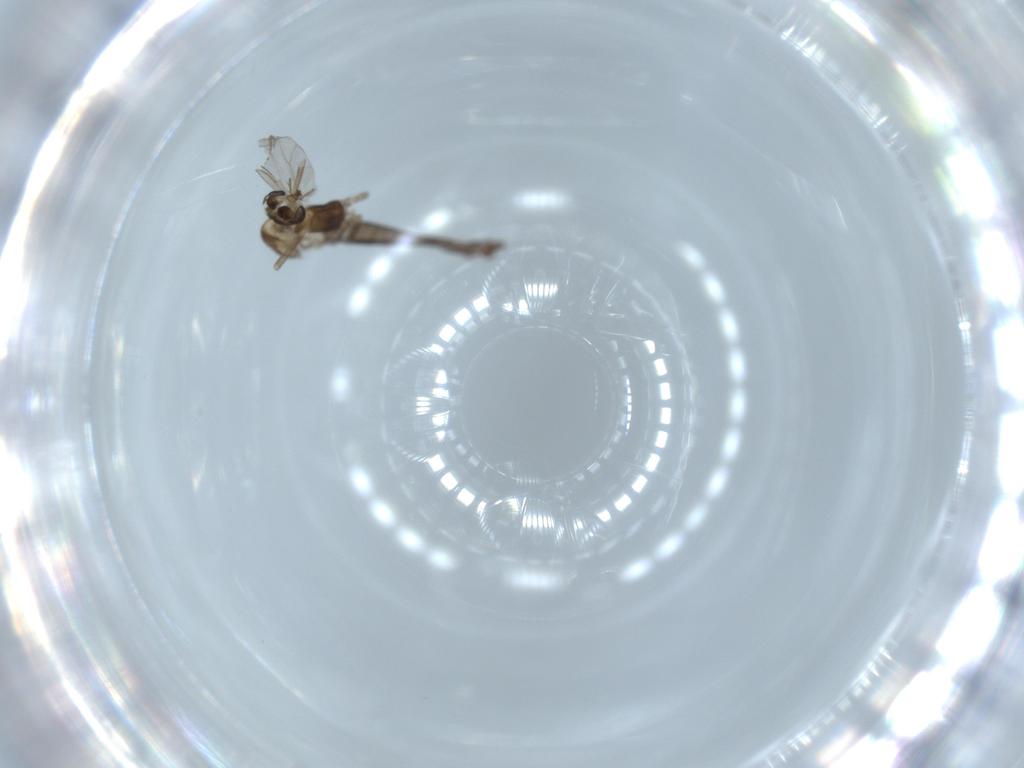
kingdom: Animalia
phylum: Arthropoda
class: Insecta
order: Diptera
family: Chironomidae
